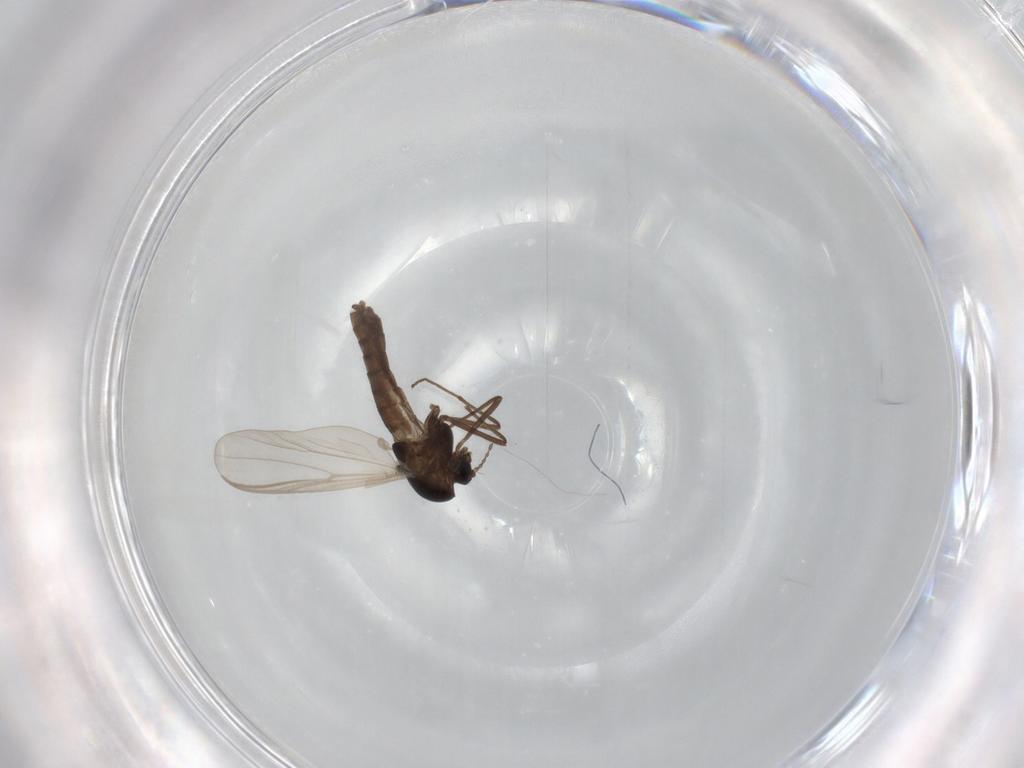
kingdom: Animalia
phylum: Arthropoda
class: Insecta
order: Diptera
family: Chironomidae
